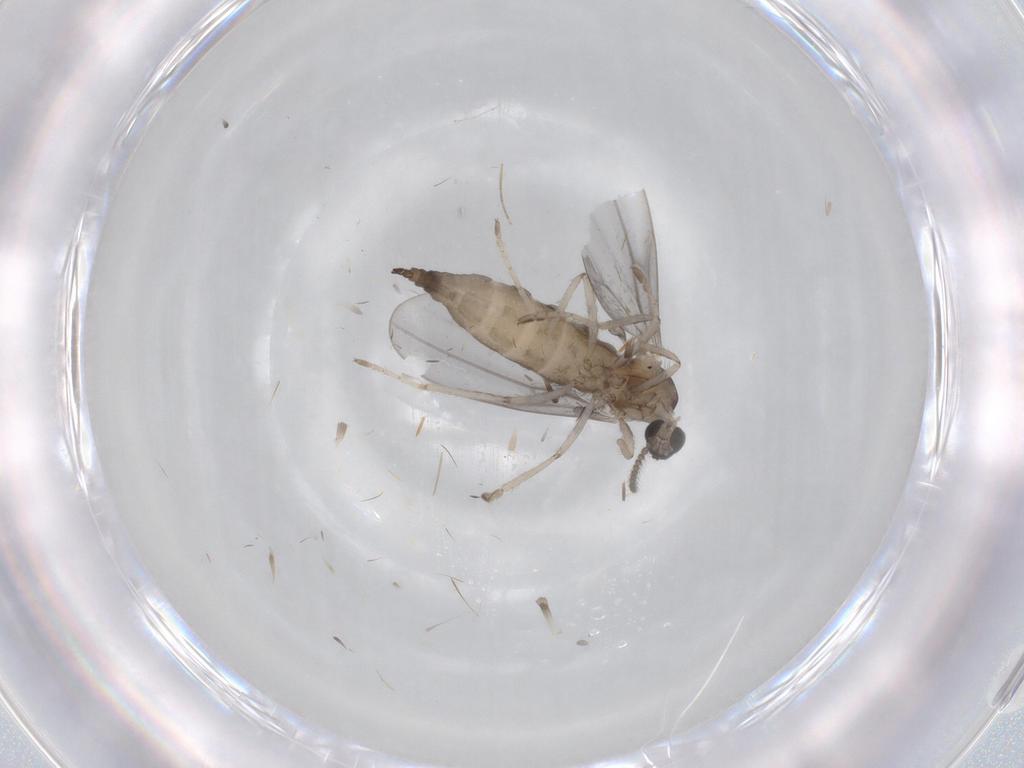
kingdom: Animalia
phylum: Arthropoda
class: Insecta
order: Diptera
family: Cecidomyiidae
